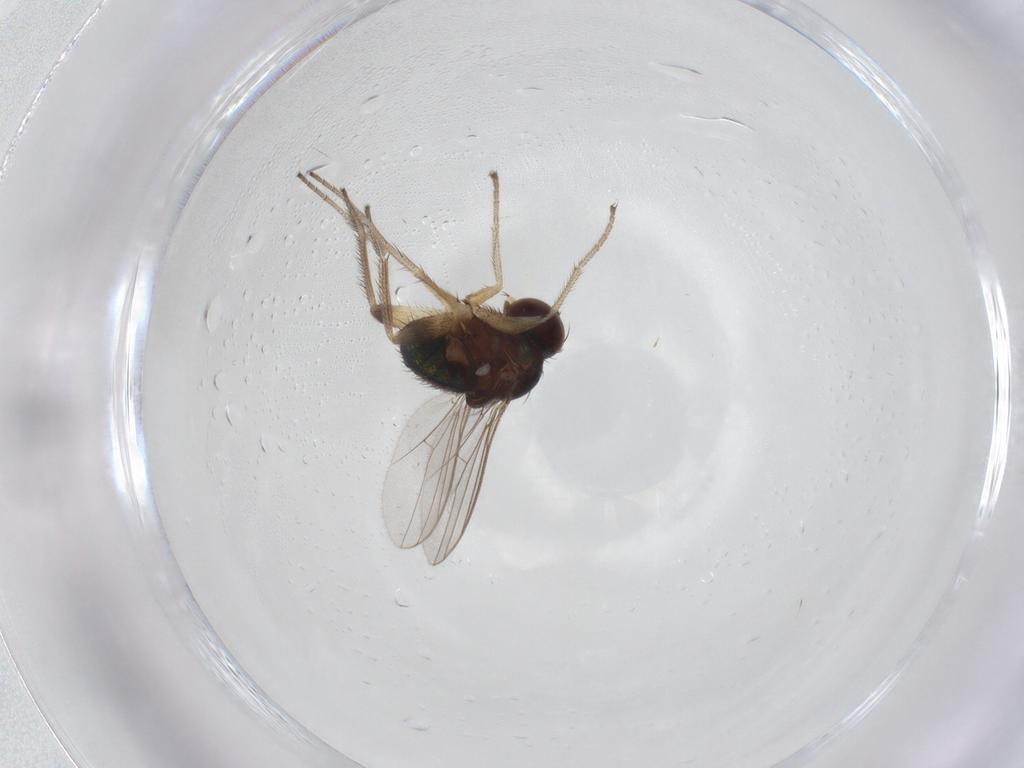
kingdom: Animalia
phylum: Arthropoda
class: Insecta
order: Diptera
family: Dolichopodidae
